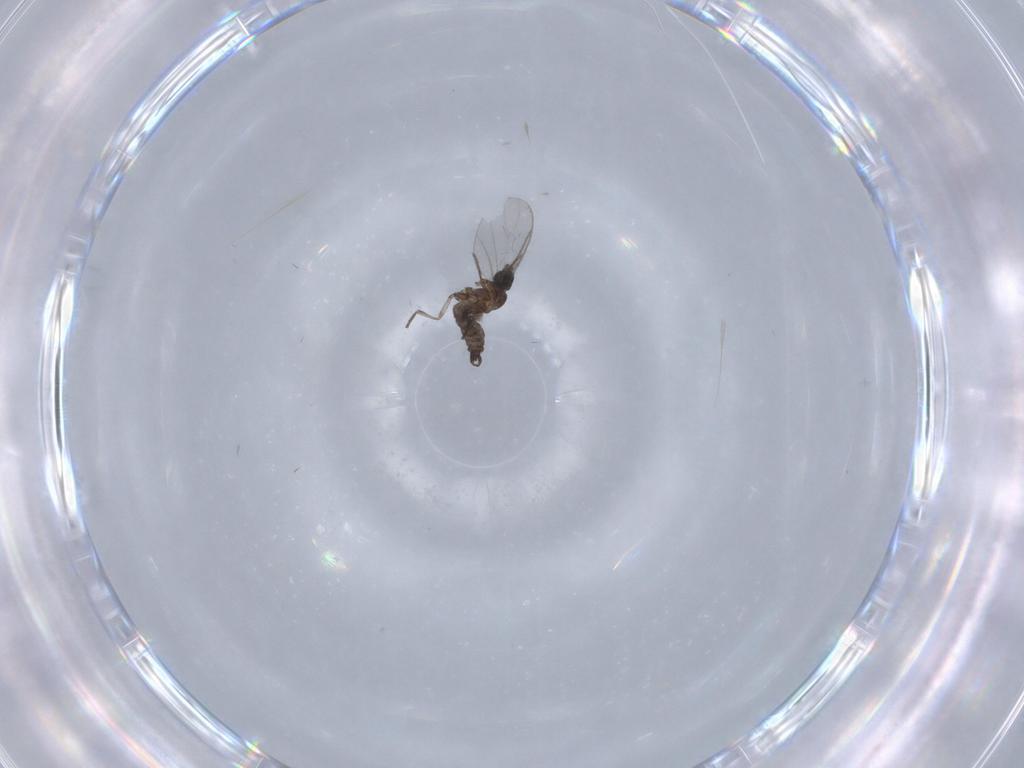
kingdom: Animalia
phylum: Arthropoda
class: Insecta
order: Diptera
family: Sciaridae
